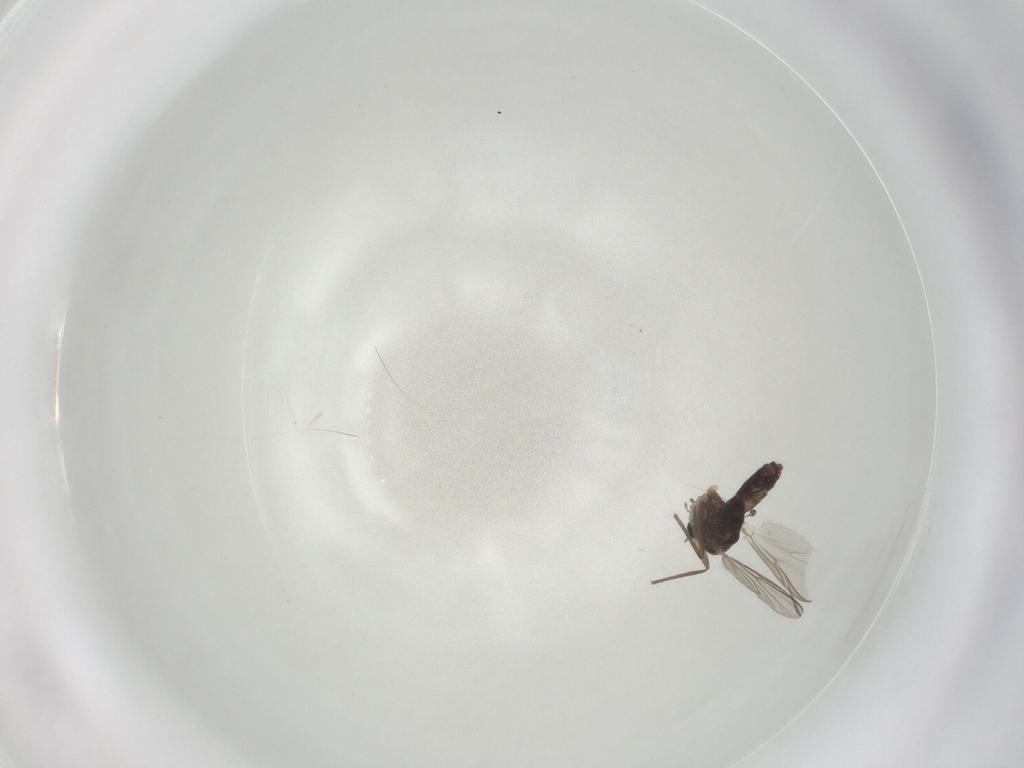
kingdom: Animalia
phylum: Arthropoda
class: Insecta
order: Diptera
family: Chironomidae
